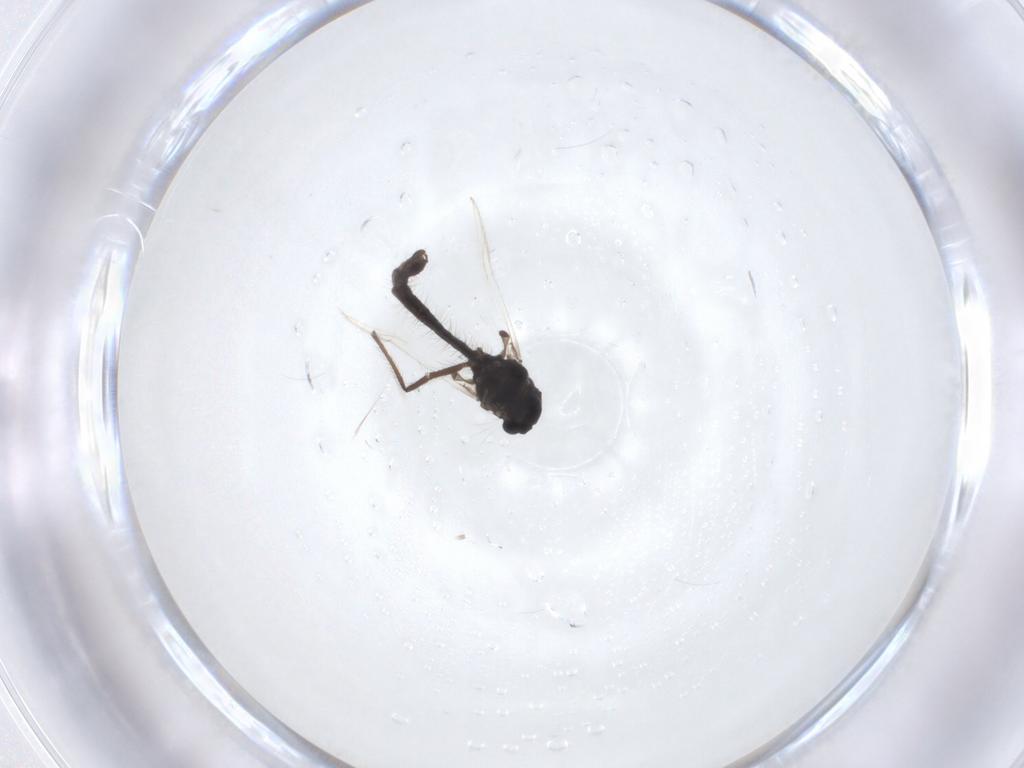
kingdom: Animalia
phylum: Arthropoda
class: Insecta
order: Diptera
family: Chironomidae
